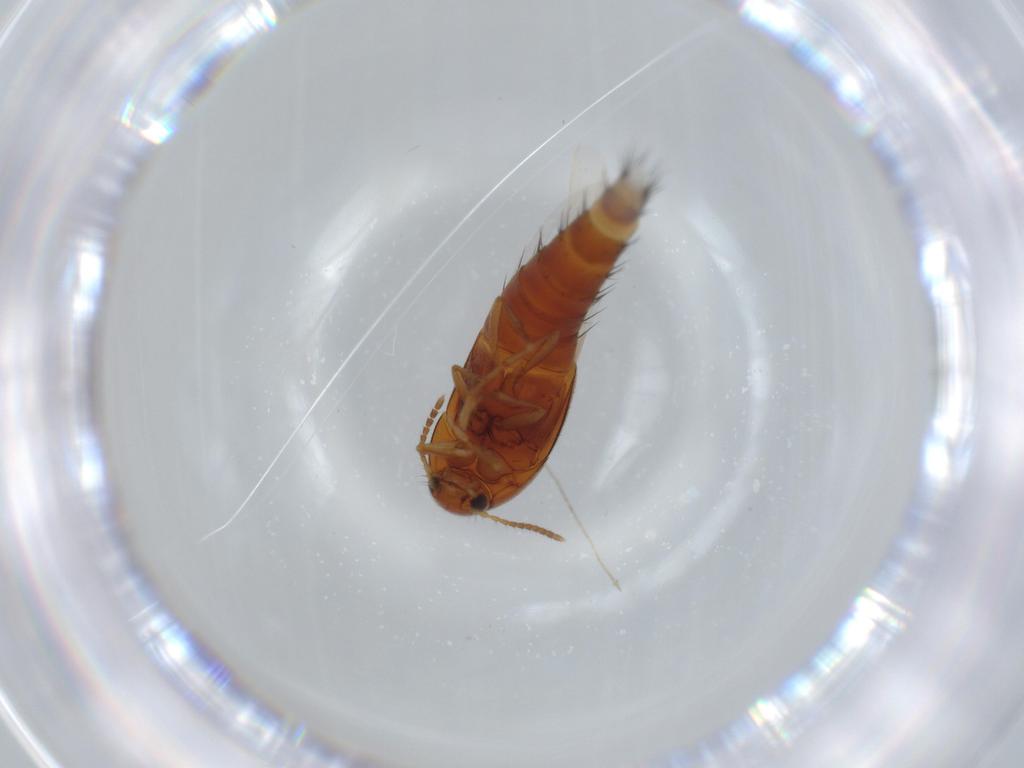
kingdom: Animalia
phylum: Arthropoda
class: Insecta
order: Coleoptera
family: Staphylinidae
